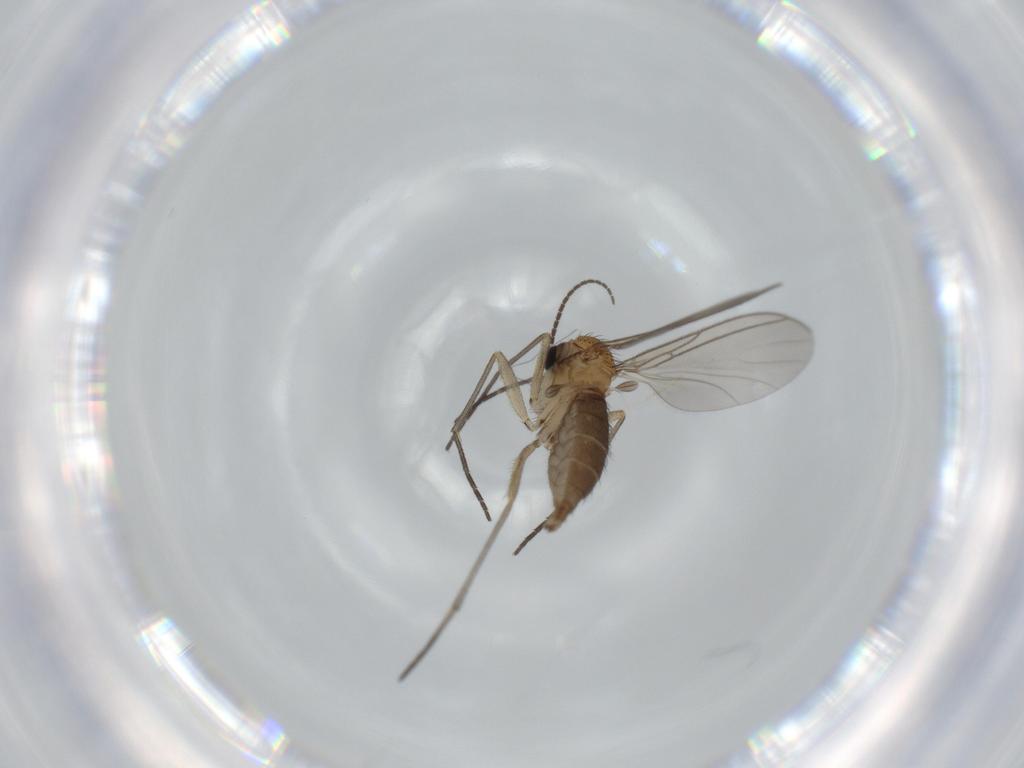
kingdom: Animalia
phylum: Arthropoda
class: Insecta
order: Diptera
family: Sciaridae
